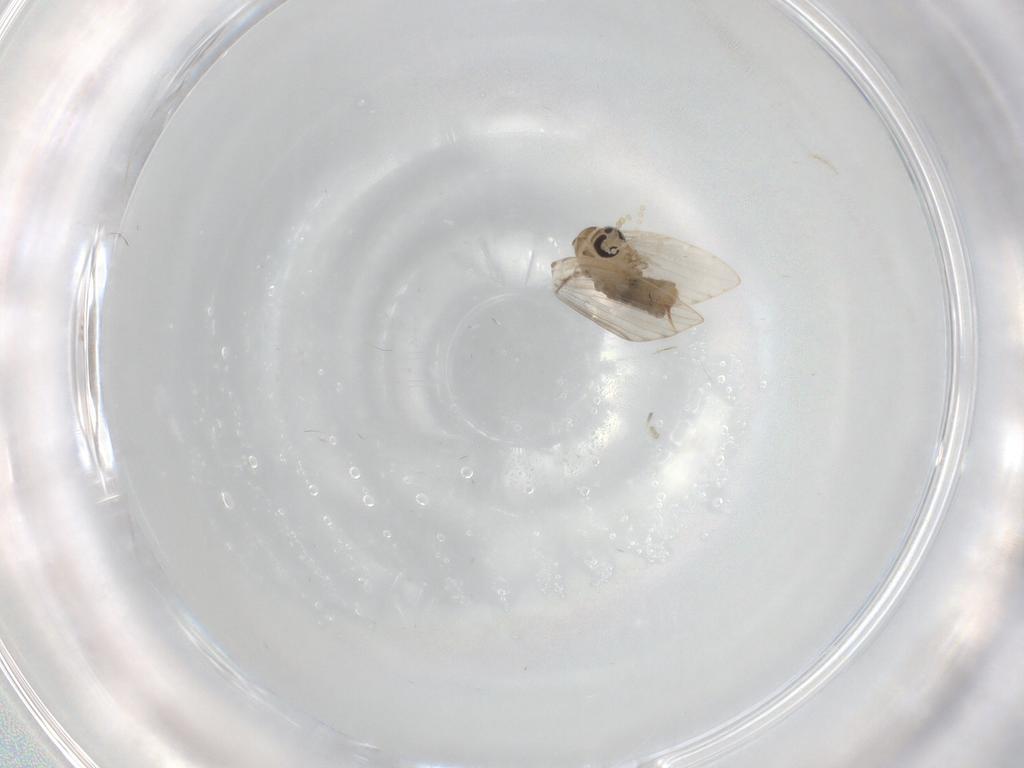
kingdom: Animalia
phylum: Arthropoda
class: Insecta
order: Diptera
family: Psychodidae
